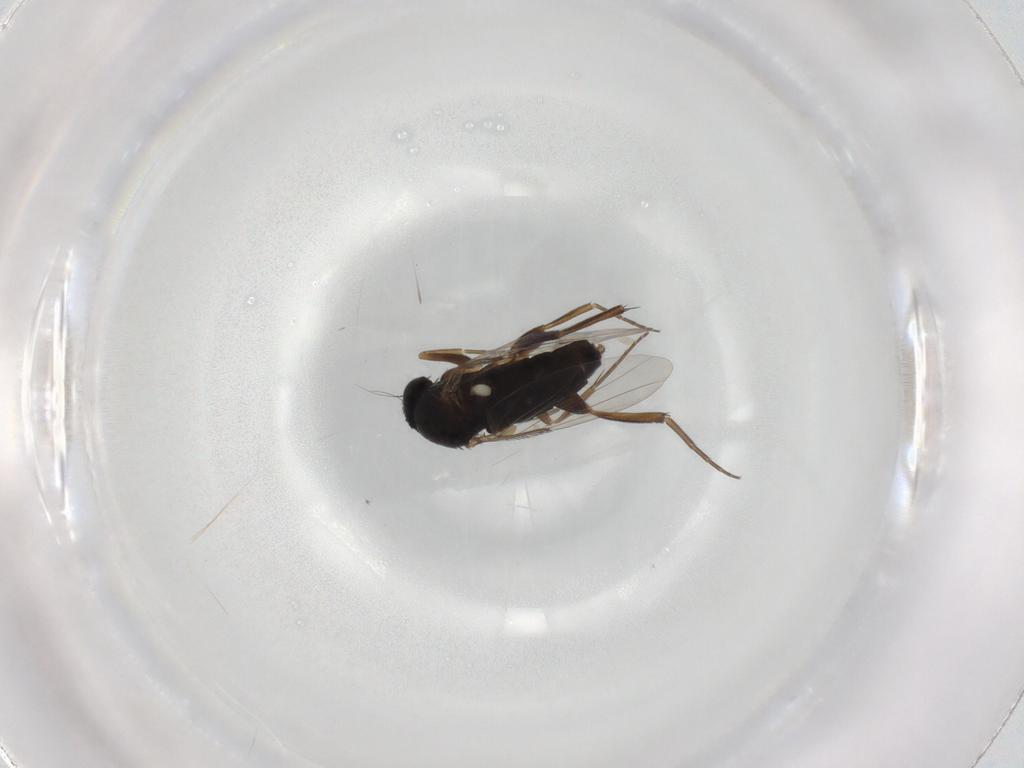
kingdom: Animalia
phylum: Arthropoda
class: Insecta
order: Diptera
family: Phoridae
